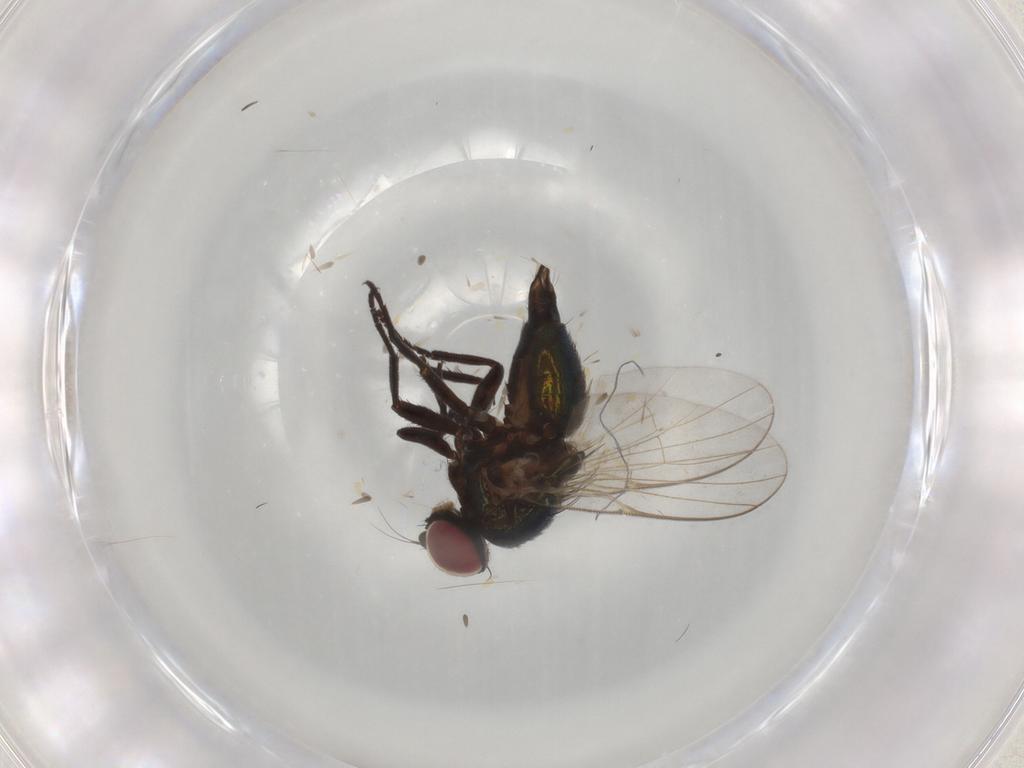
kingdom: Animalia
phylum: Arthropoda
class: Insecta
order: Diptera
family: Agromyzidae
